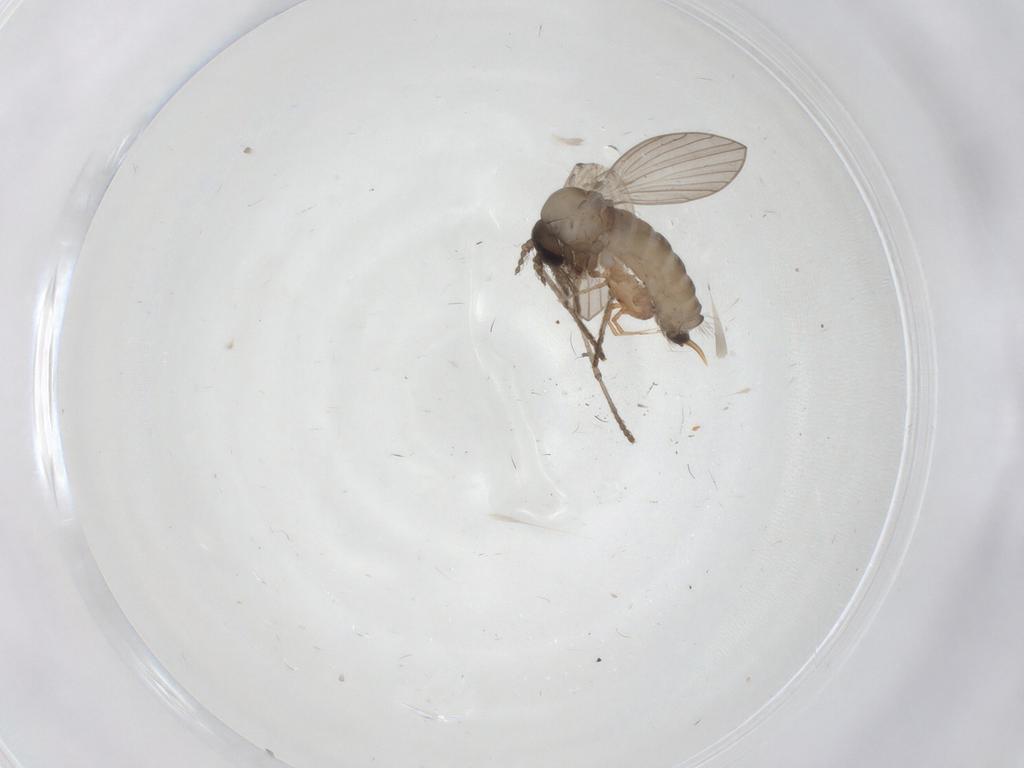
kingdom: Animalia
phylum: Arthropoda
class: Insecta
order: Diptera
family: Psychodidae
